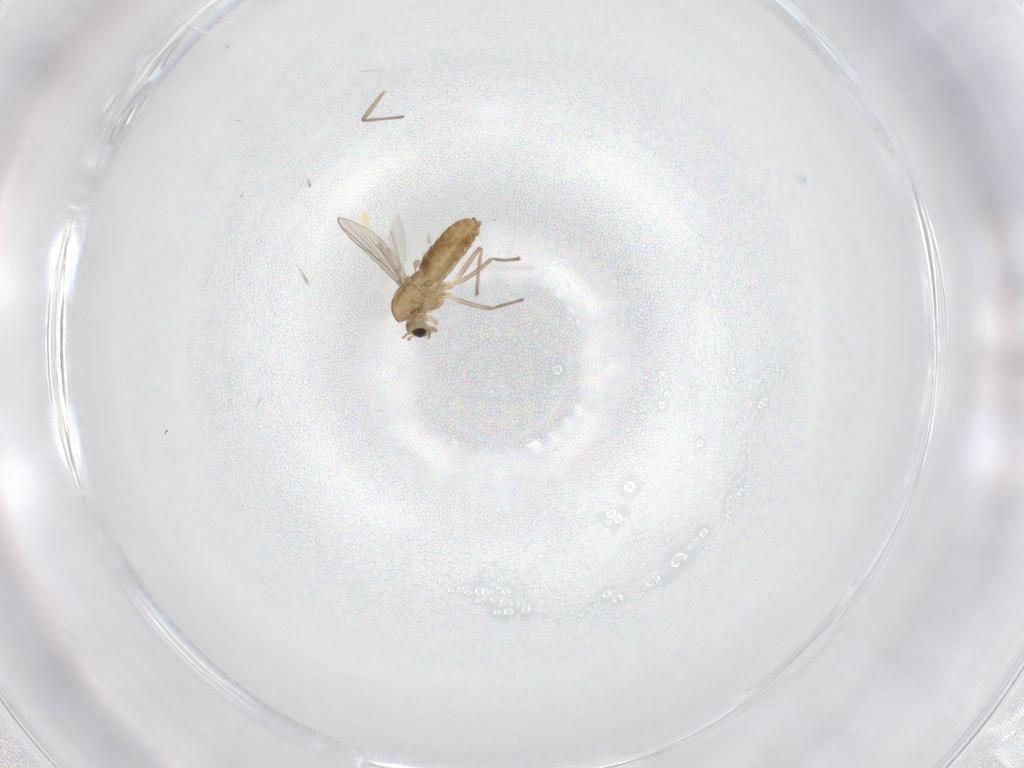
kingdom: Animalia
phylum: Arthropoda
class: Insecta
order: Diptera
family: Chironomidae
